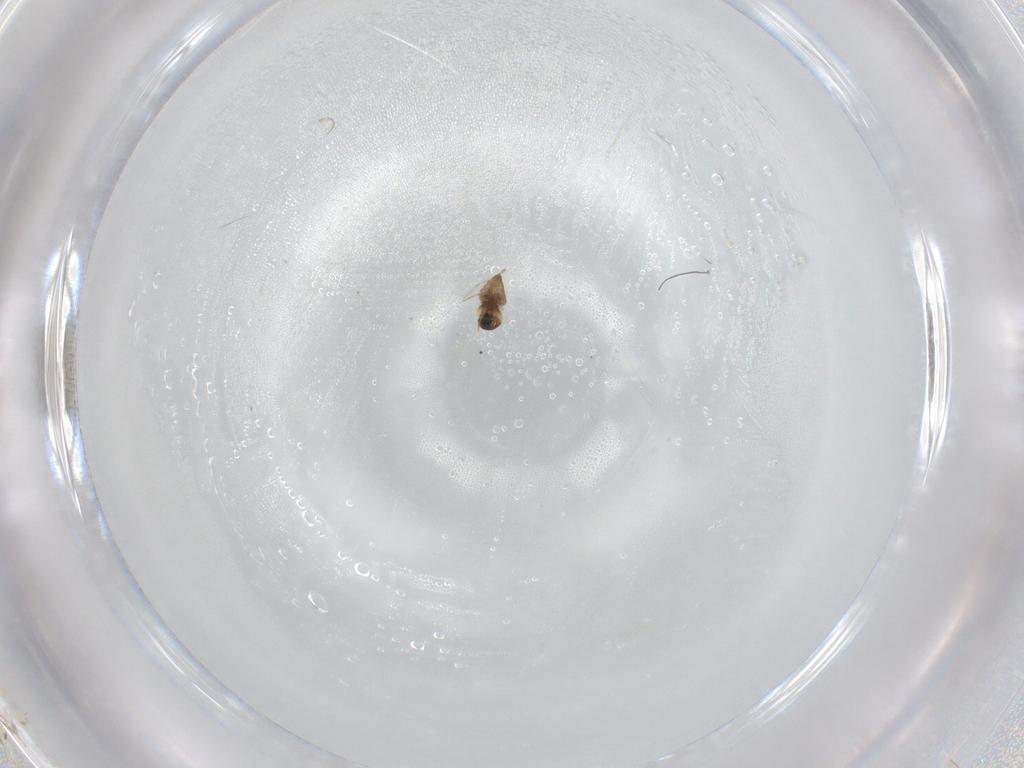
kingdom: Animalia
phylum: Arthropoda
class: Insecta
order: Diptera
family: Cecidomyiidae
